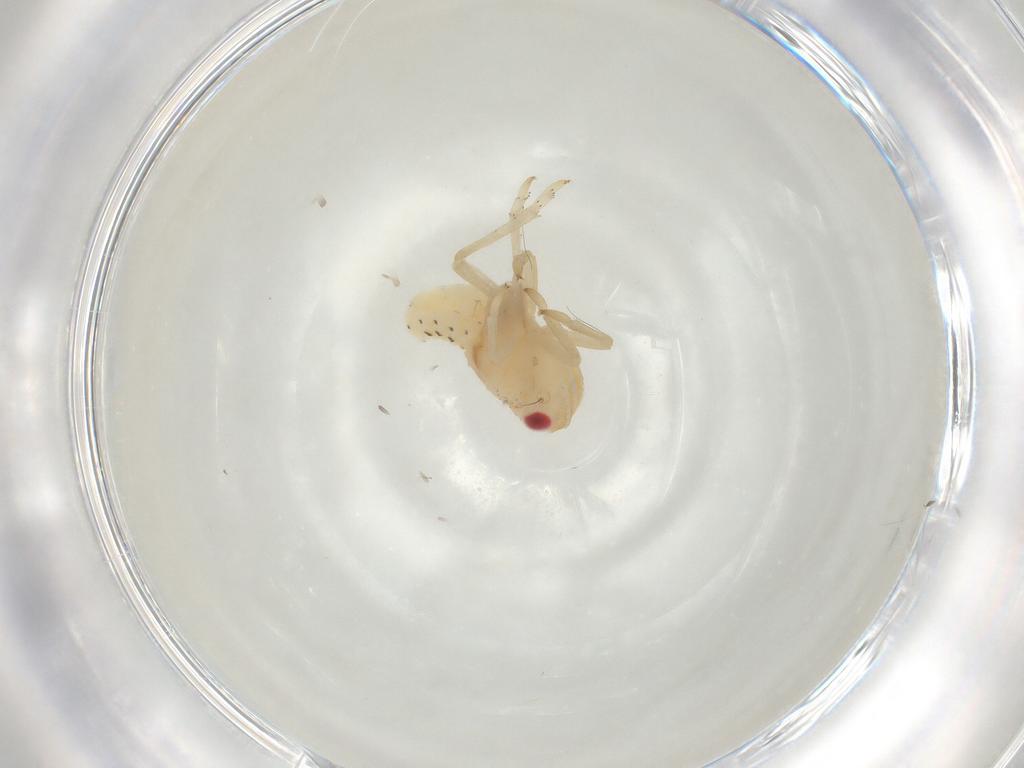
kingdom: Animalia
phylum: Arthropoda
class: Insecta
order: Hemiptera
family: Tropiduchidae
